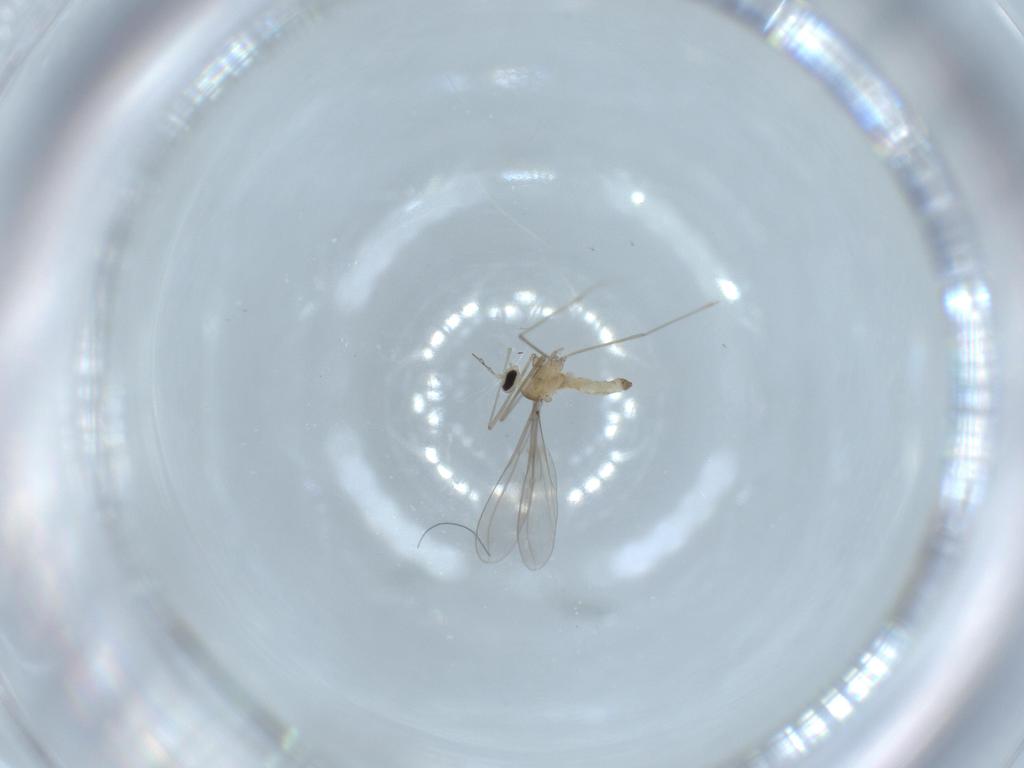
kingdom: Animalia
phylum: Arthropoda
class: Insecta
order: Diptera
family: Cecidomyiidae
